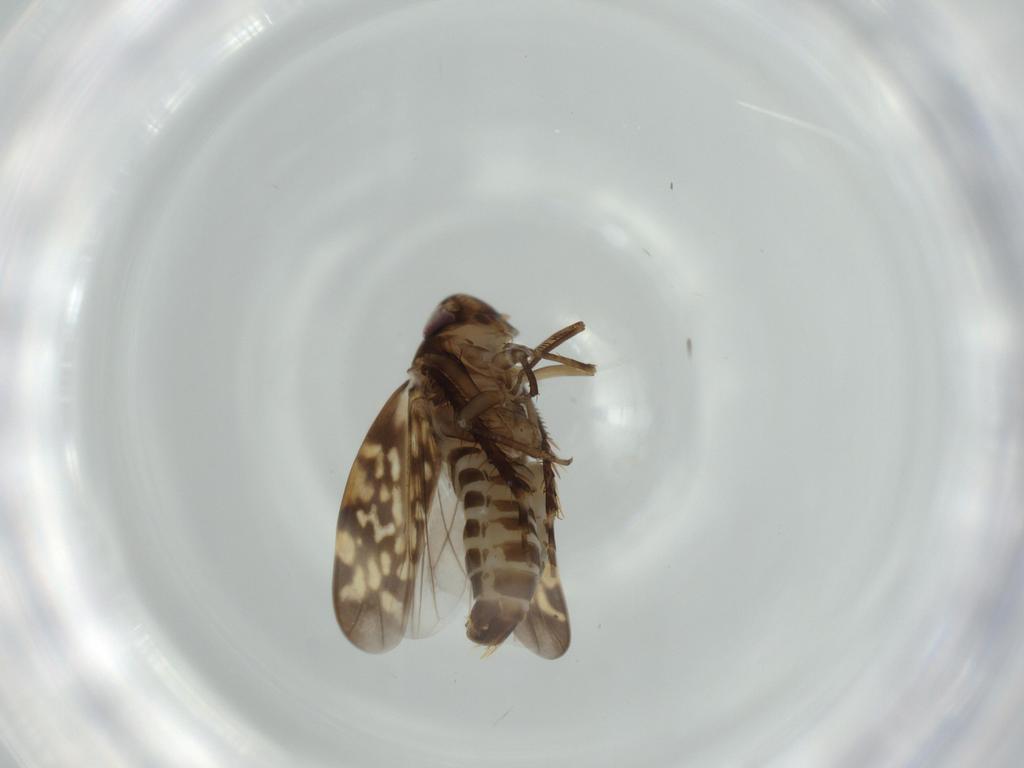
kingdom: Animalia
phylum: Arthropoda
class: Insecta
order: Hemiptera
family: Cicadellidae
